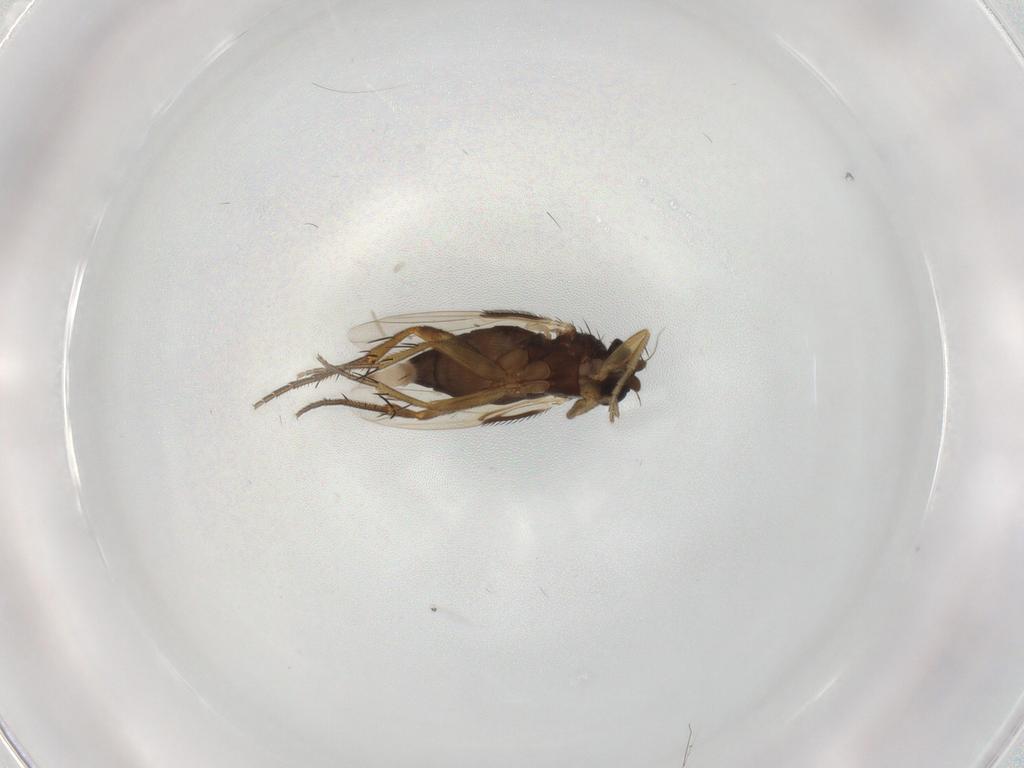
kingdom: Animalia
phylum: Arthropoda
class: Insecta
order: Diptera
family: Phoridae
